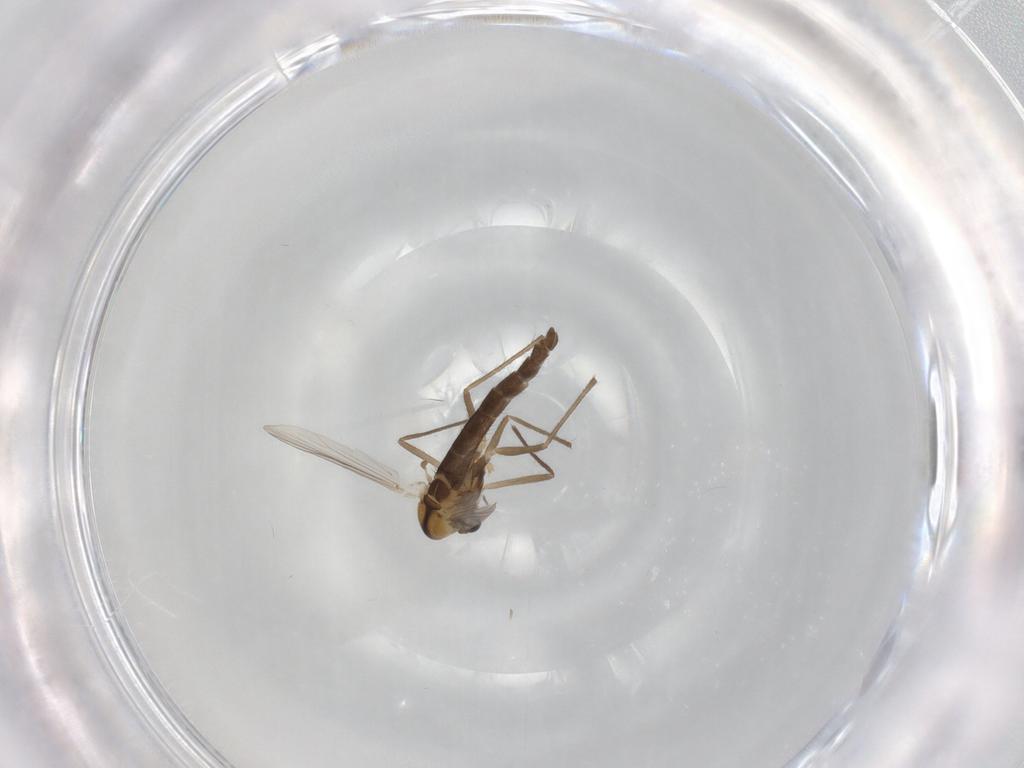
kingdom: Animalia
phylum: Arthropoda
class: Insecta
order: Diptera
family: Chironomidae
